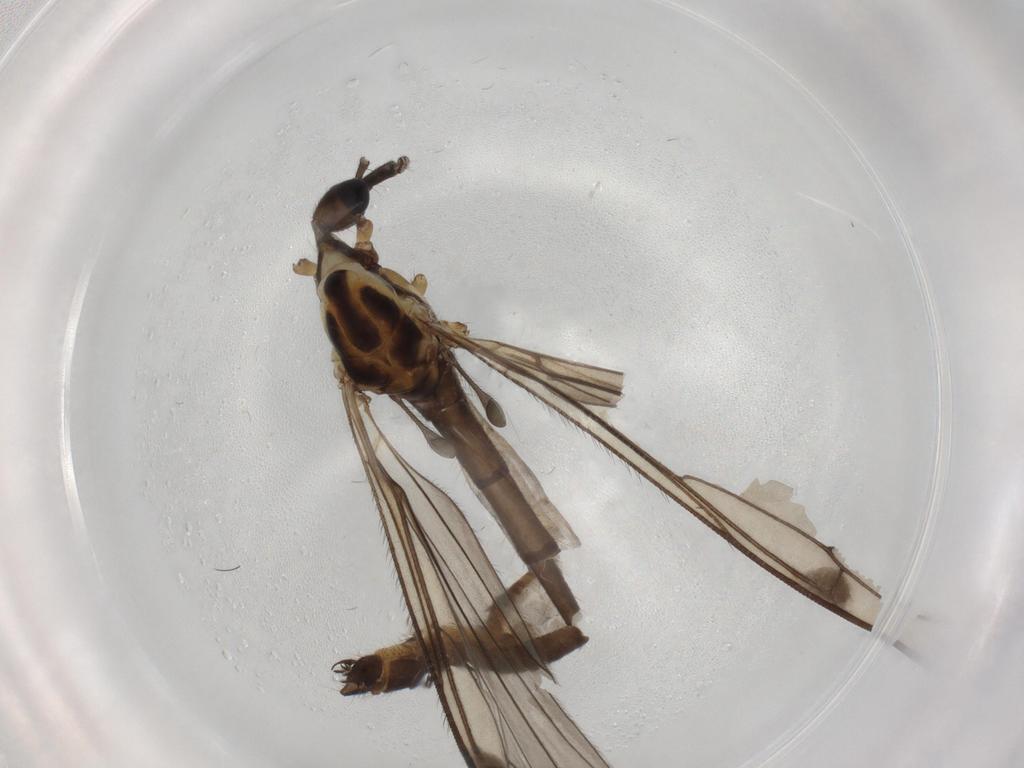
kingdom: Animalia
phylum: Arthropoda
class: Insecta
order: Diptera
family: Limoniidae
